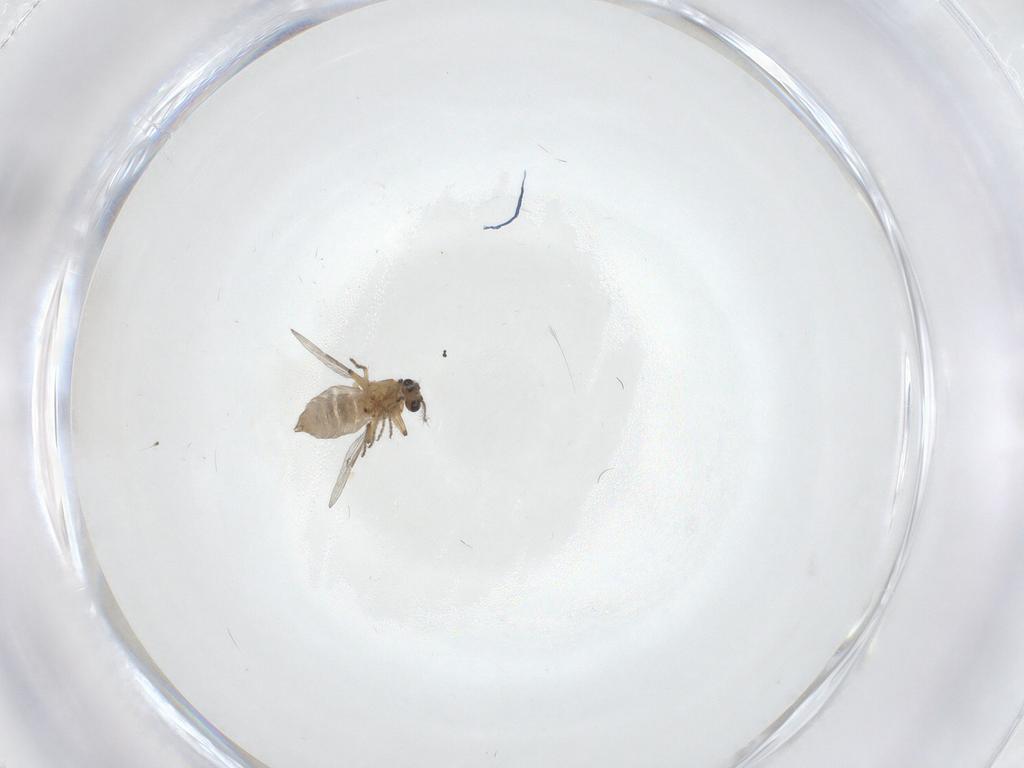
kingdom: Animalia
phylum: Arthropoda
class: Insecta
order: Diptera
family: Ceratopogonidae
